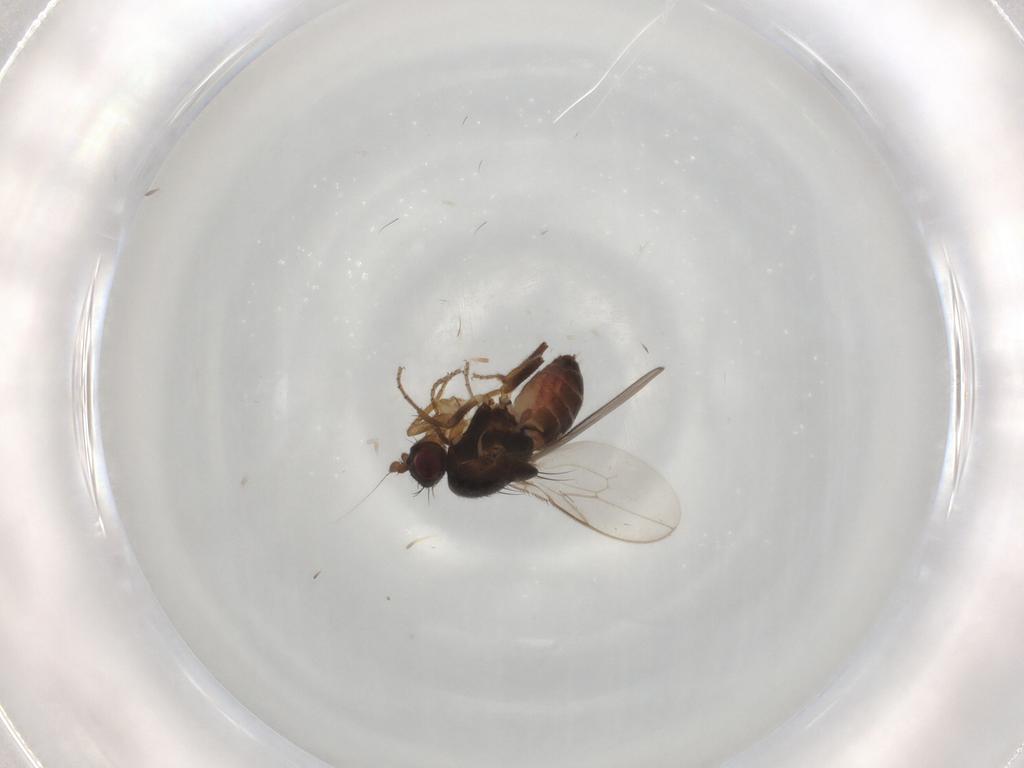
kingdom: Animalia
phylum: Arthropoda
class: Insecta
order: Diptera
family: Sphaeroceridae
